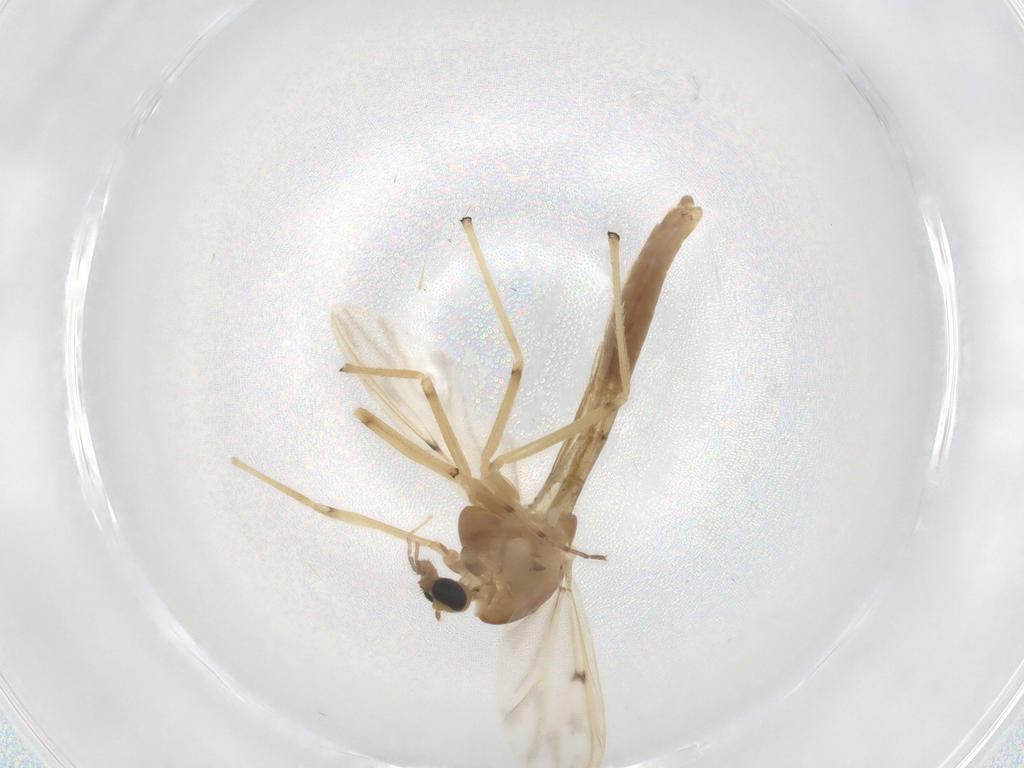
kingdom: Animalia
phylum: Arthropoda
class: Insecta
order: Diptera
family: Chironomidae
